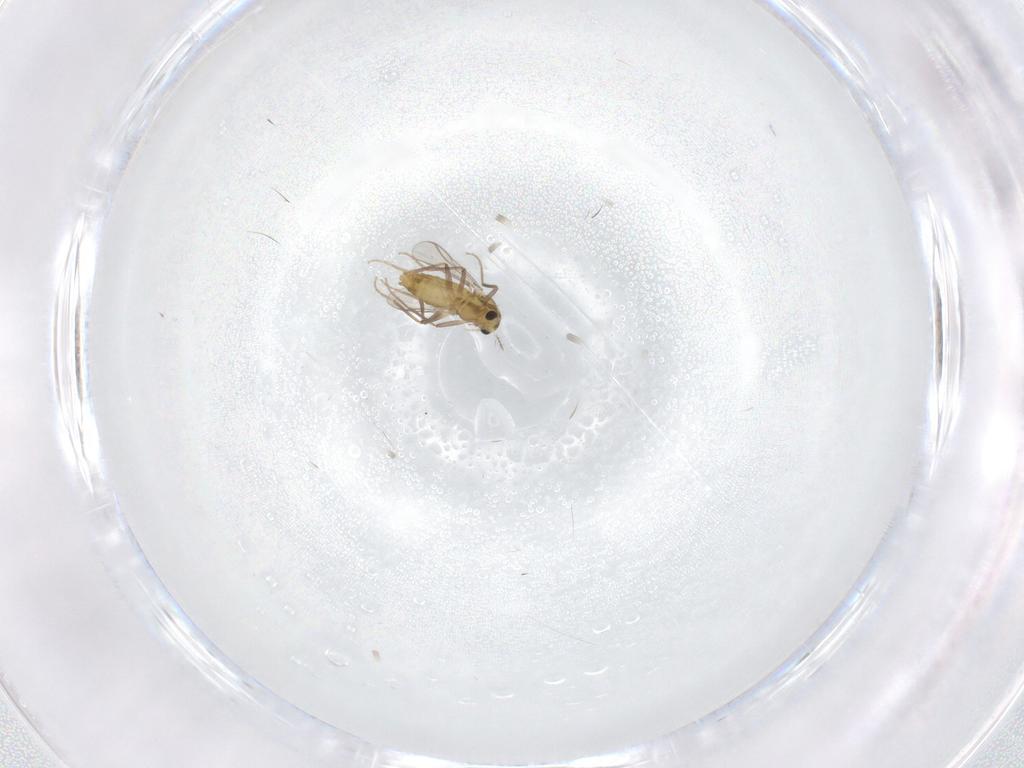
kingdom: Animalia
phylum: Arthropoda
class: Insecta
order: Diptera
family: Chironomidae
